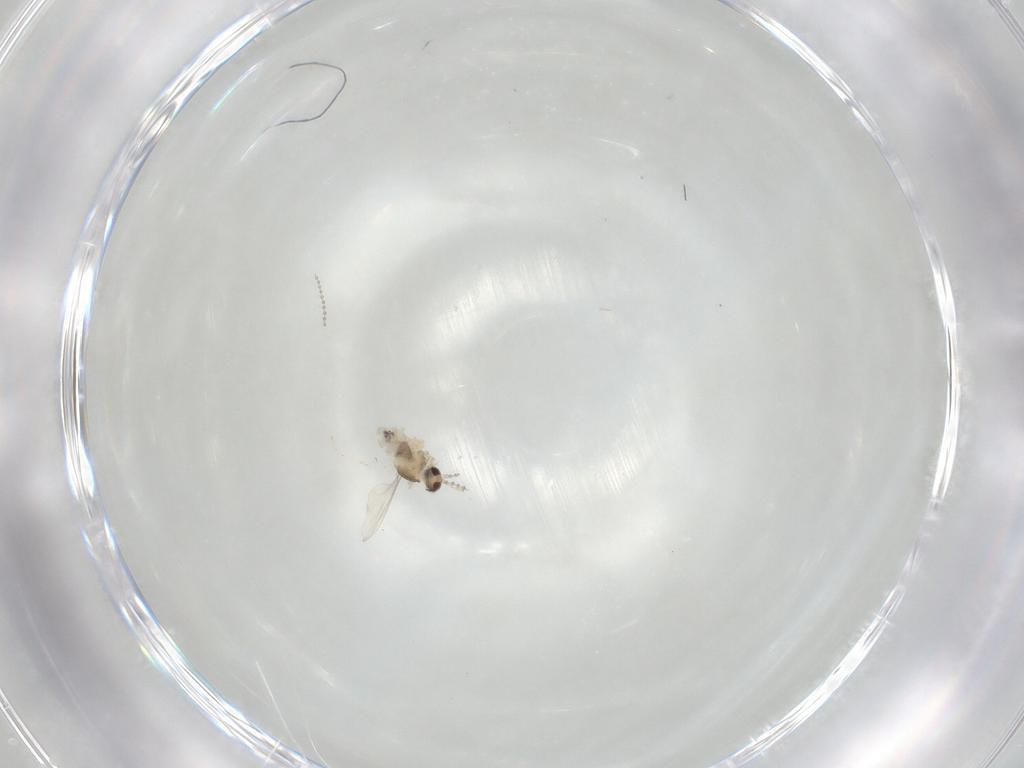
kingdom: Animalia
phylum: Arthropoda
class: Insecta
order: Diptera
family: Cecidomyiidae
